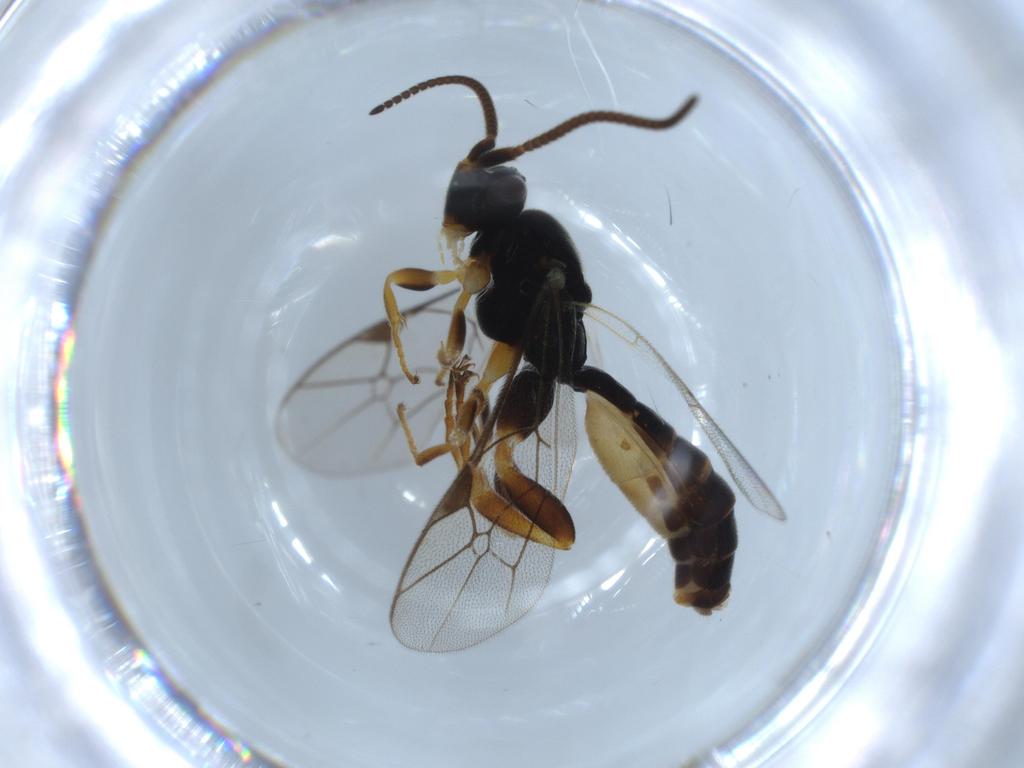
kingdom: Animalia
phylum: Arthropoda
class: Insecta
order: Hymenoptera
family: Ichneumonidae
